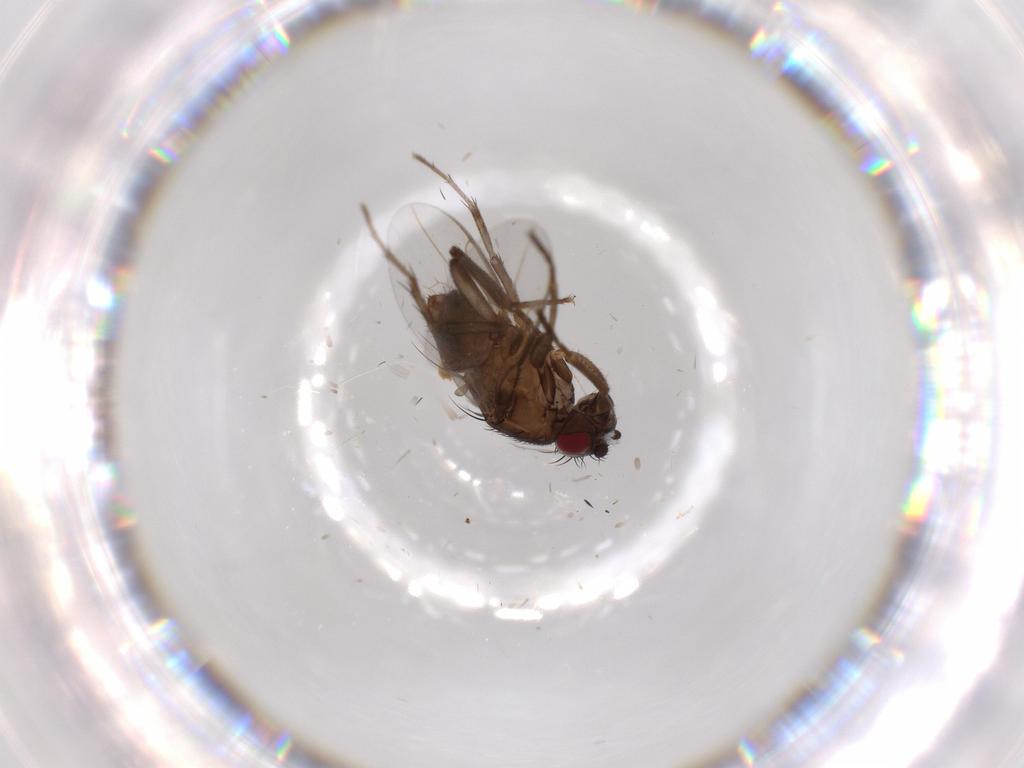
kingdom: Animalia
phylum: Arthropoda
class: Insecta
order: Diptera
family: Sphaeroceridae
